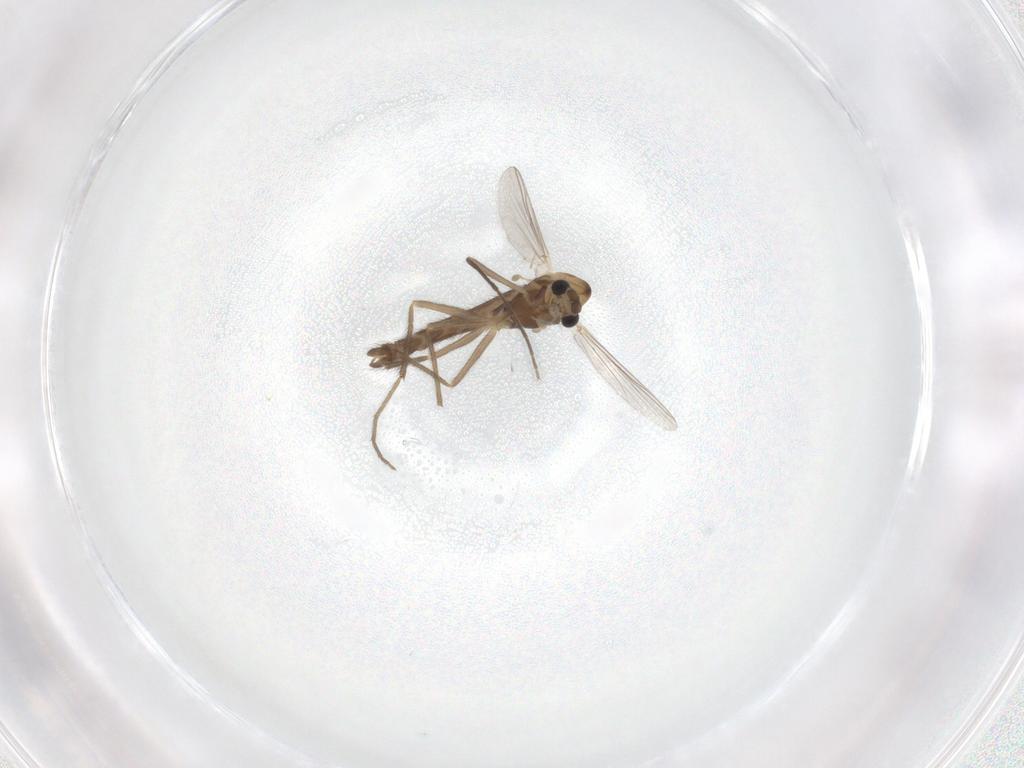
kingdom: Animalia
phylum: Arthropoda
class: Insecta
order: Diptera
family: Chironomidae
